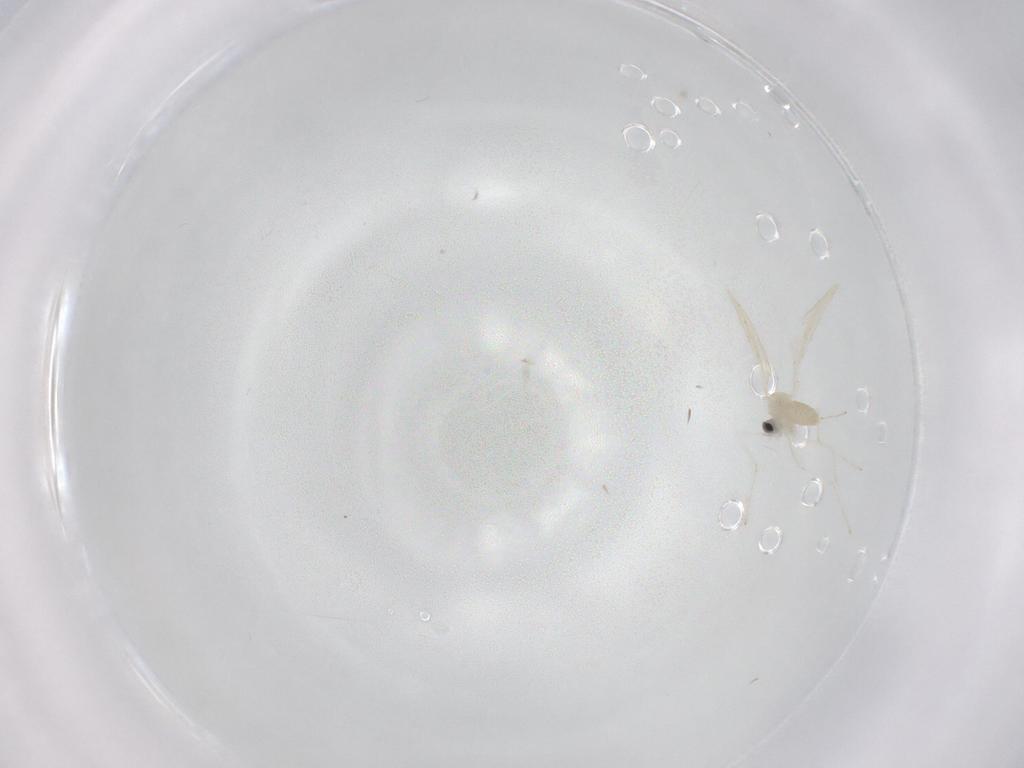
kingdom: Animalia
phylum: Arthropoda
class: Insecta
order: Diptera
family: Cecidomyiidae
